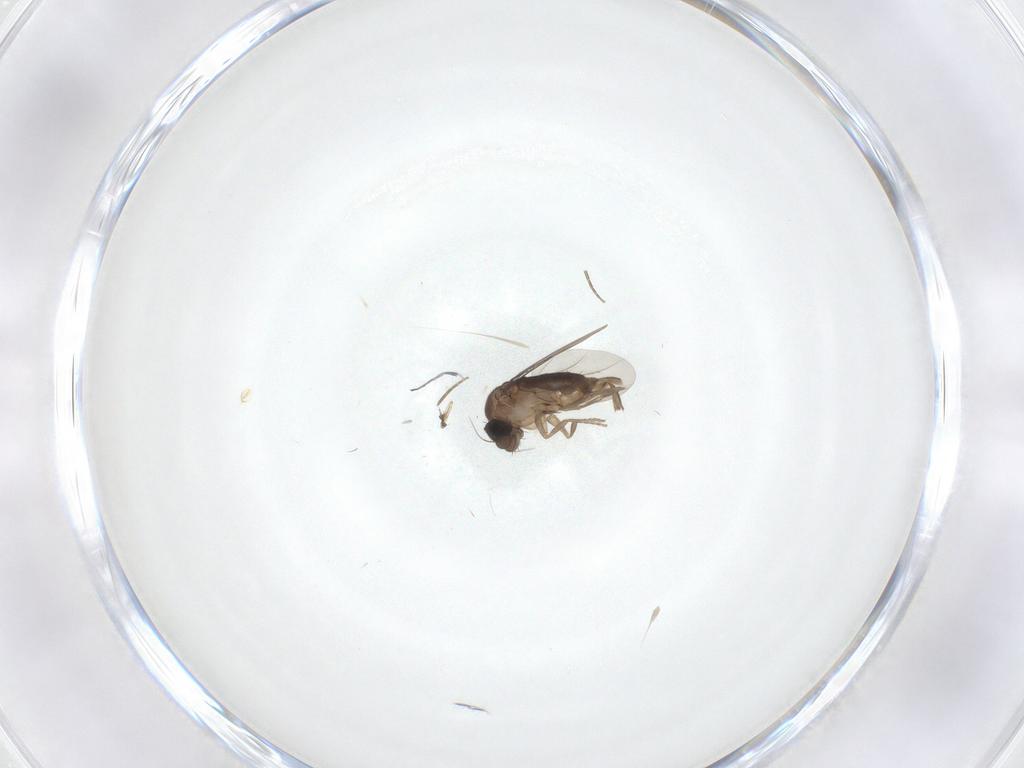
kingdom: Animalia
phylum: Arthropoda
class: Insecta
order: Diptera
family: Phoridae
